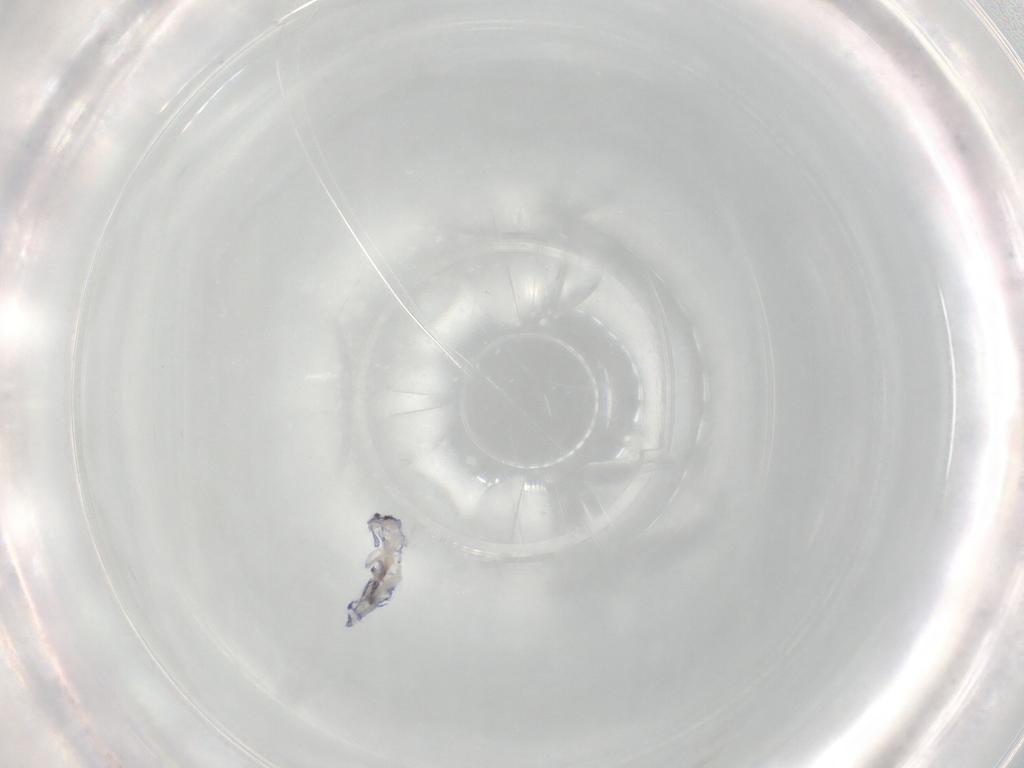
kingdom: Animalia
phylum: Arthropoda
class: Collembola
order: Entomobryomorpha
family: Entomobryidae
